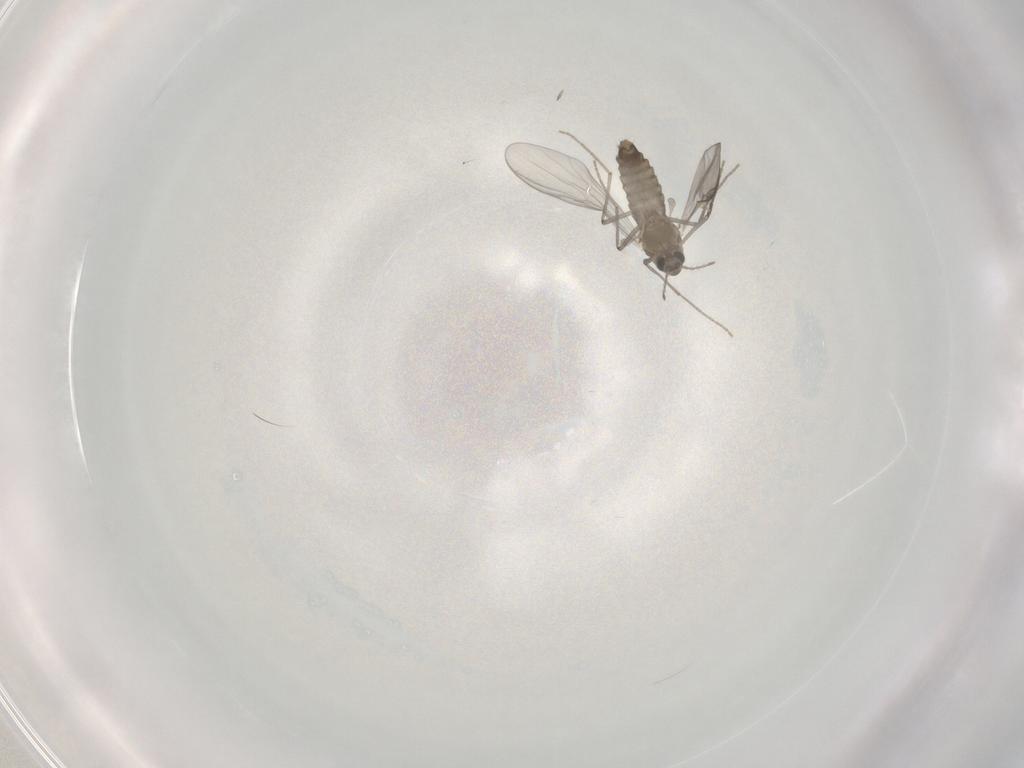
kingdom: Animalia
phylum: Arthropoda
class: Insecta
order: Diptera
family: Chironomidae
